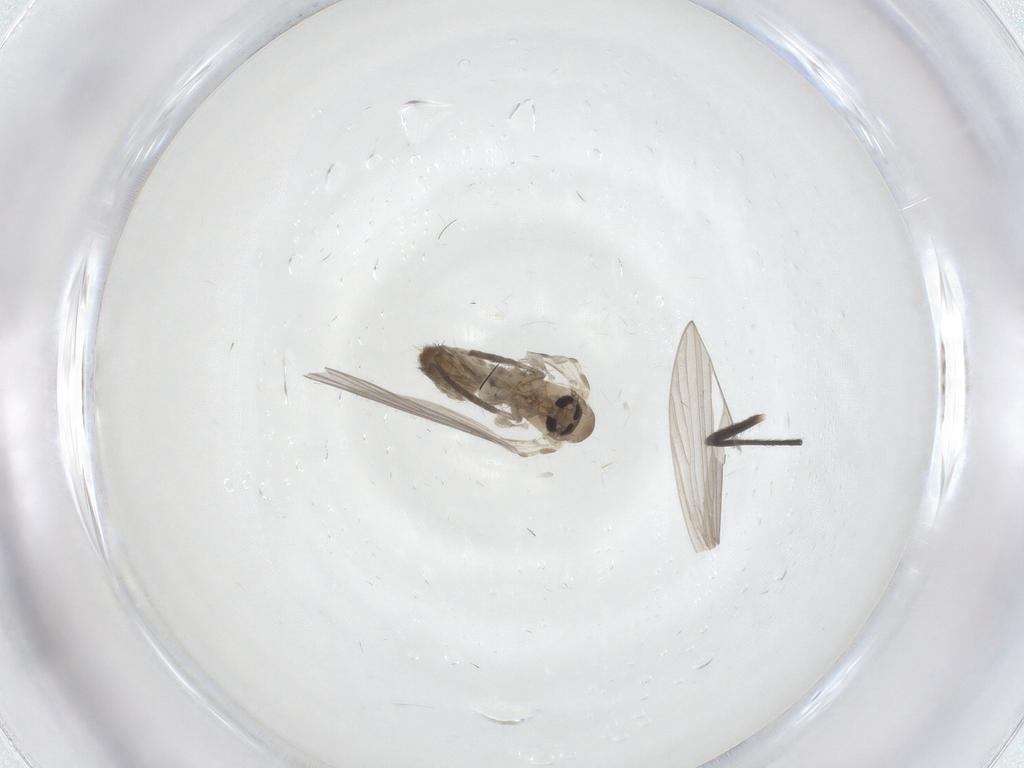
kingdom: Animalia
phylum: Arthropoda
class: Insecta
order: Diptera
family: Psychodidae
